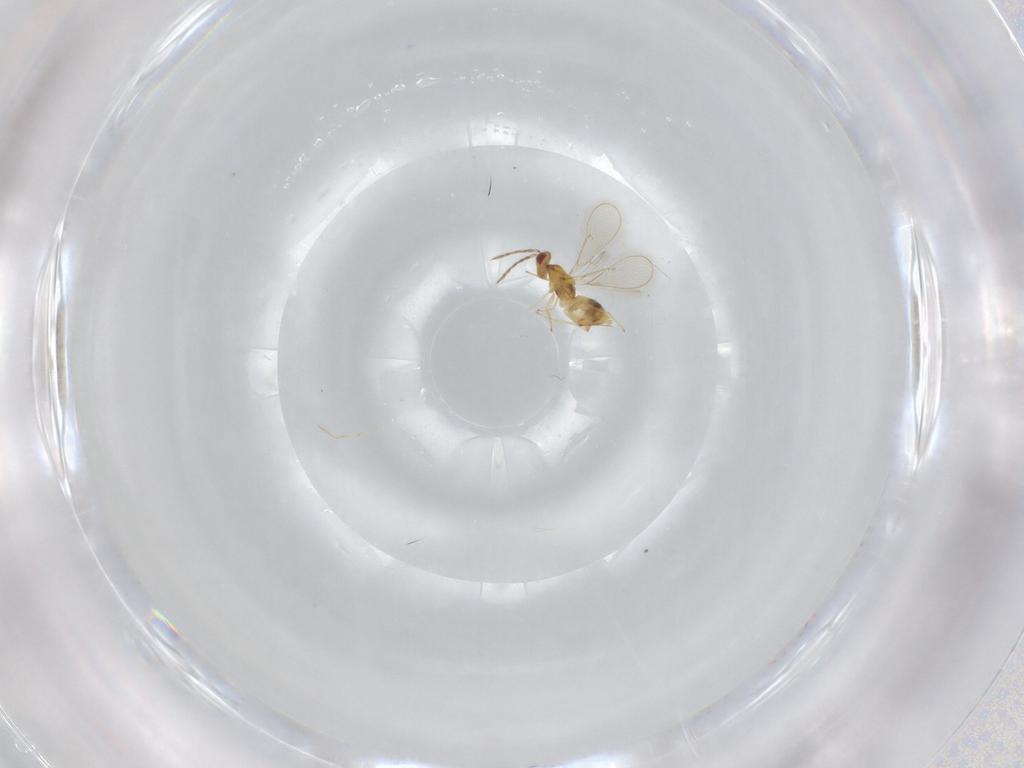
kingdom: Animalia
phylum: Arthropoda
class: Insecta
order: Hymenoptera
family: Eulophidae
